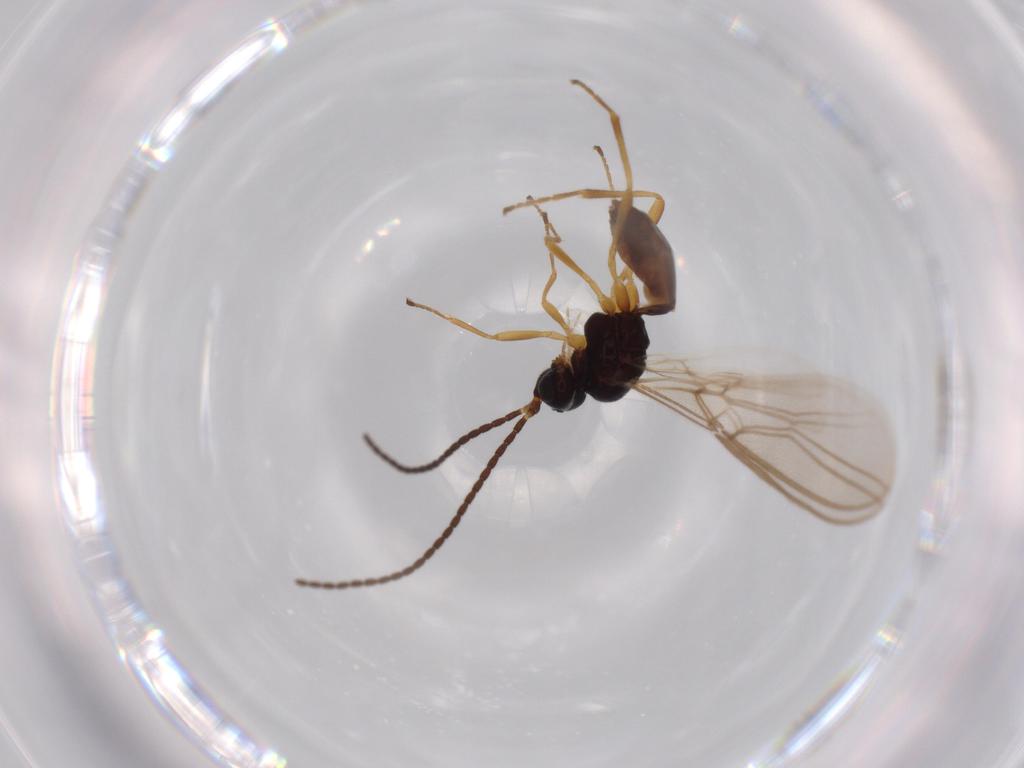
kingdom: Animalia
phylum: Arthropoda
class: Insecta
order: Hymenoptera
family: Braconidae
